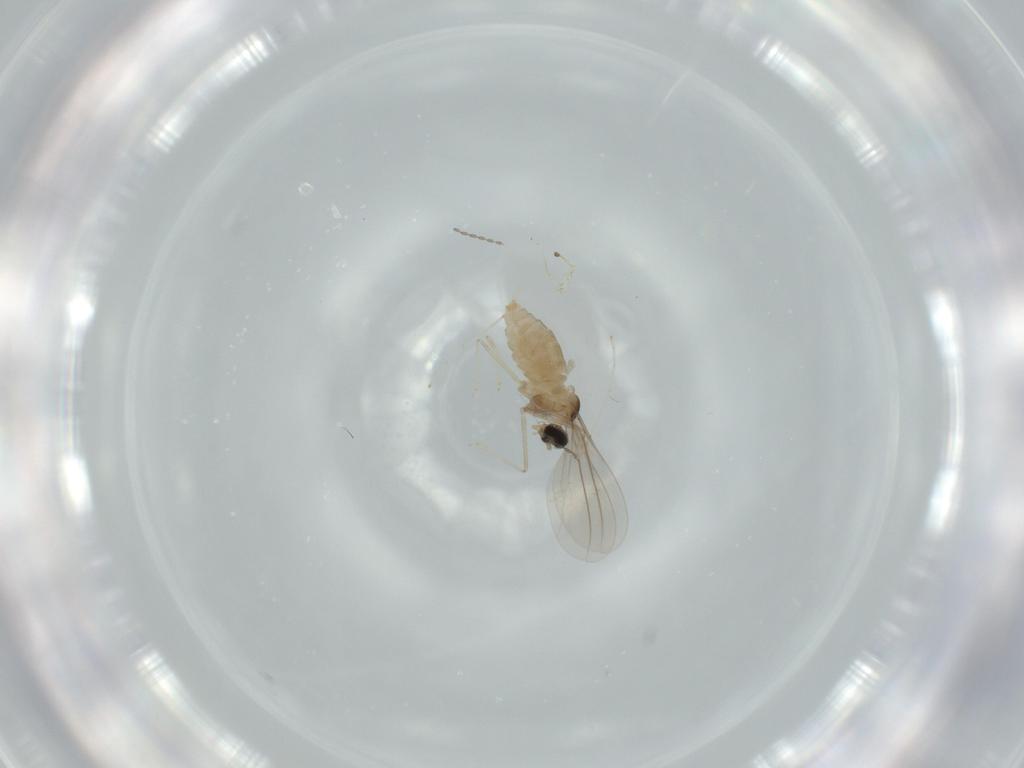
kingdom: Animalia
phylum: Arthropoda
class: Insecta
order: Diptera
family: Cecidomyiidae
